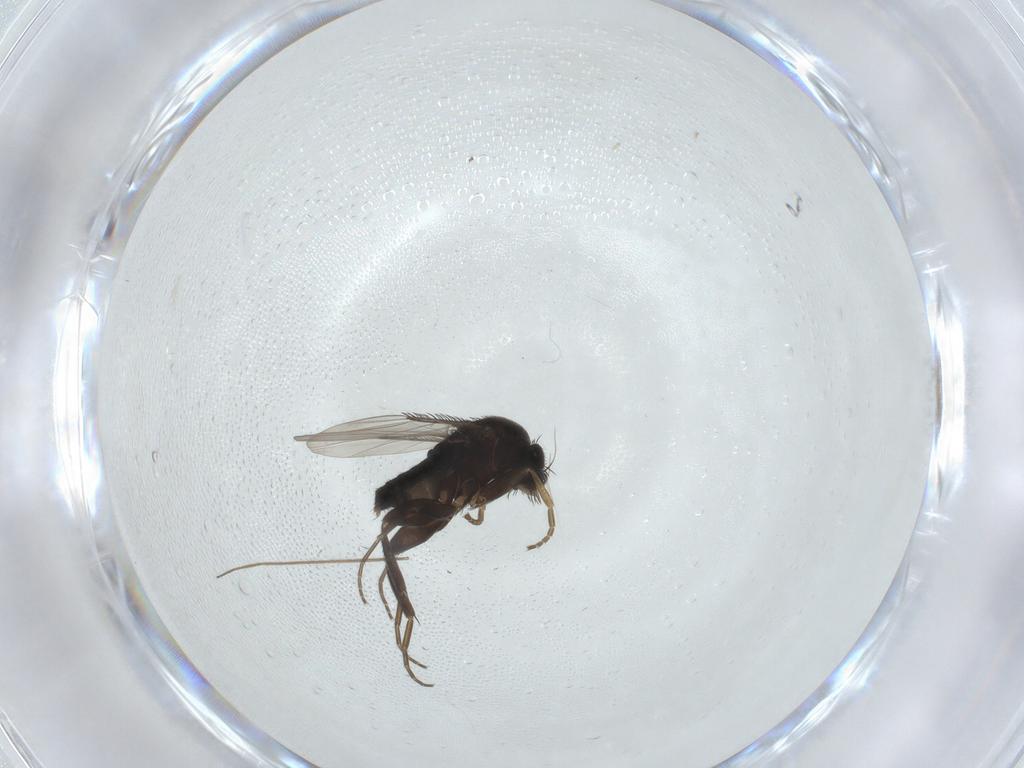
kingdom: Animalia
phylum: Arthropoda
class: Insecta
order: Diptera
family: Phoridae
